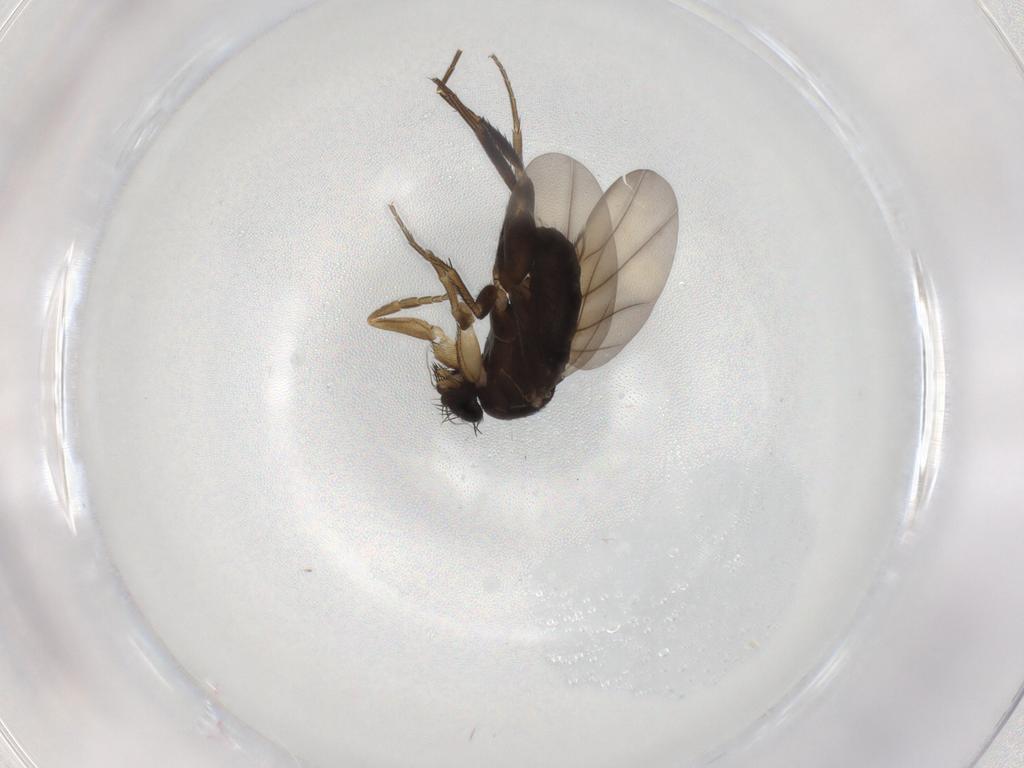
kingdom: Animalia
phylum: Arthropoda
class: Insecta
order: Diptera
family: Phoridae
